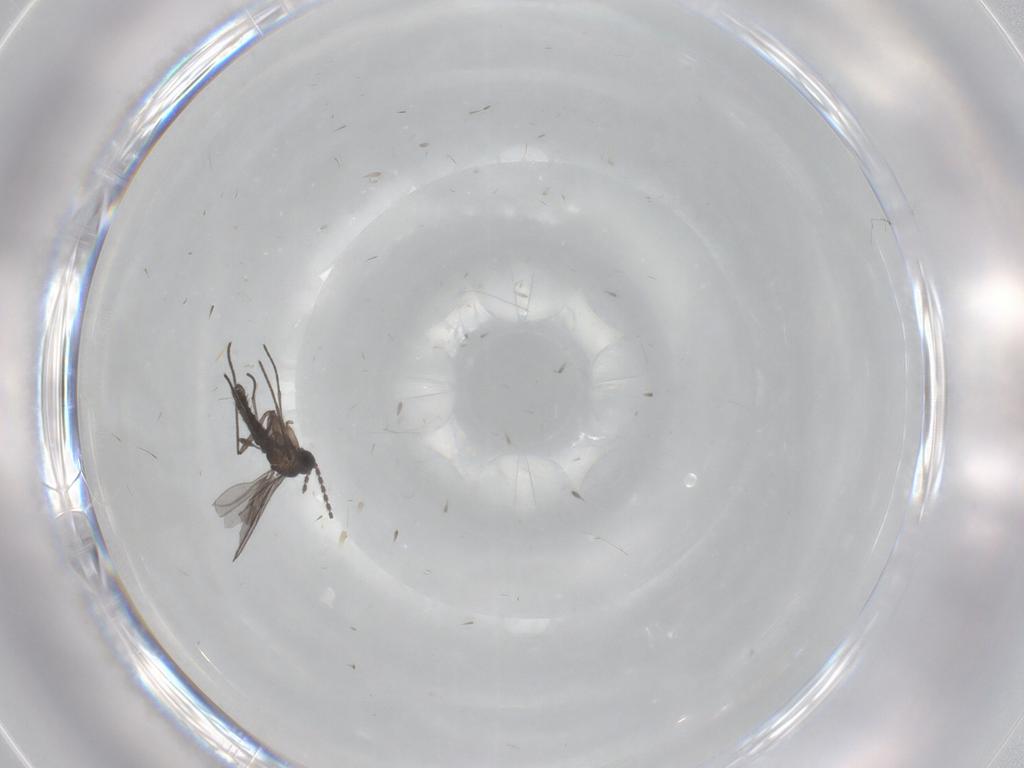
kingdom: Animalia
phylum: Arthropoda
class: Insecta
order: Diptera
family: Sciaridae
